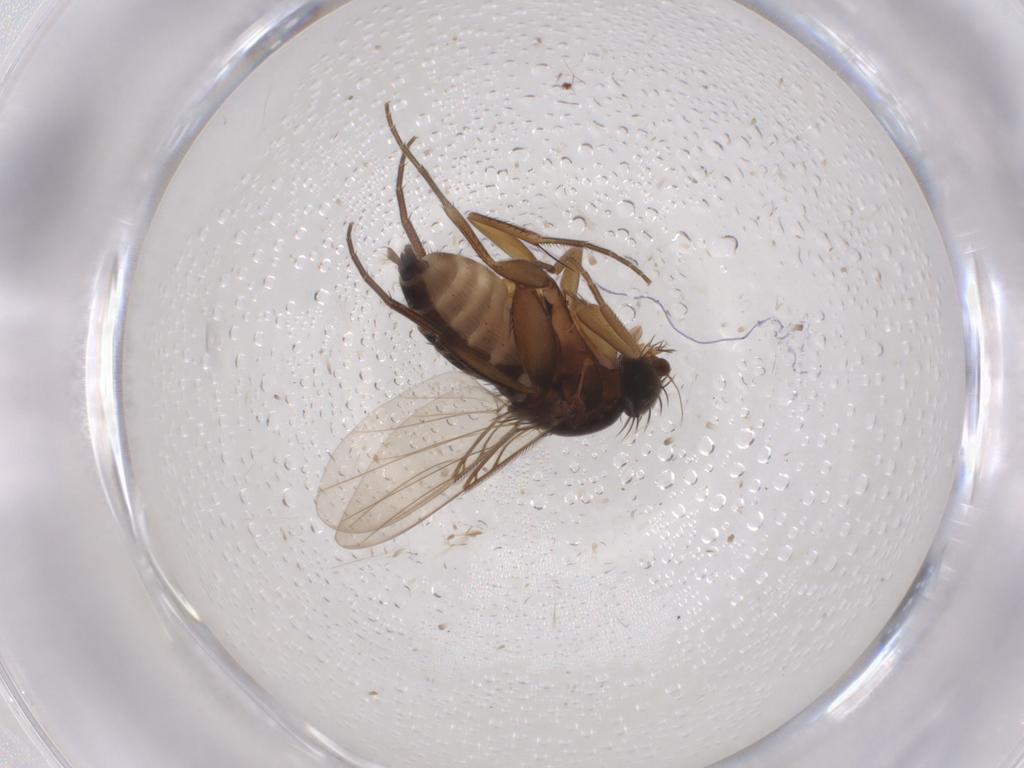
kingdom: Animalia
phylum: Arthropoda
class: Insecta
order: Diptera
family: Phoridae
